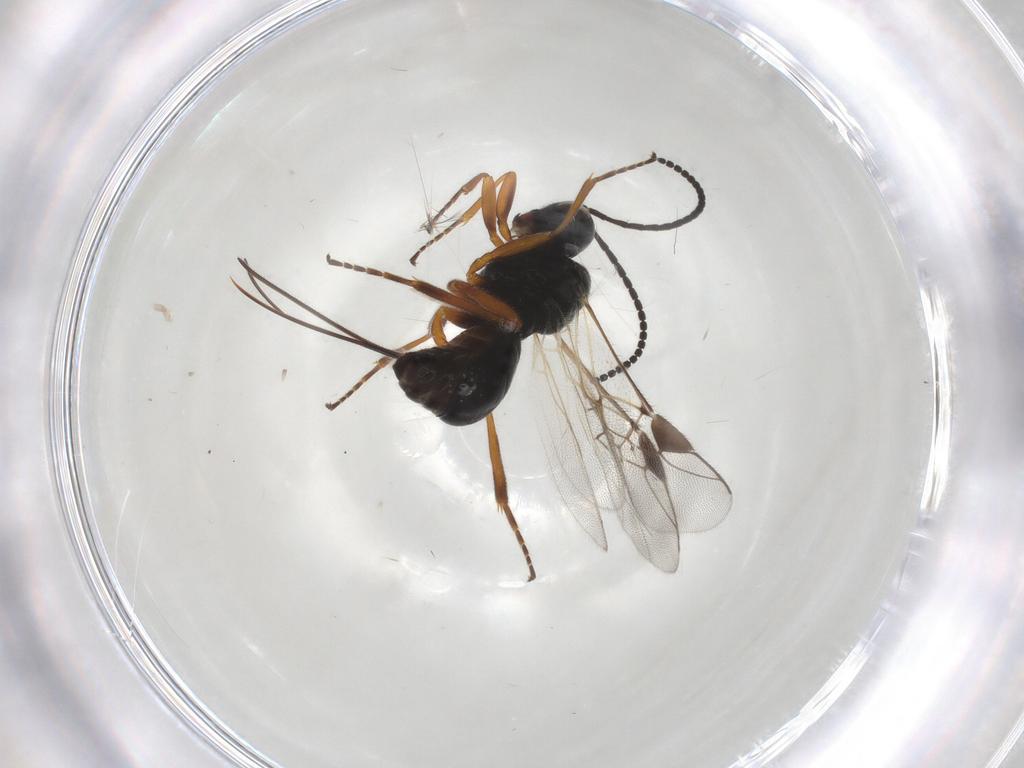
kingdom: Animalia
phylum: Arthropoda
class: Insecta
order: Hymenoptera
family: Braconidae
